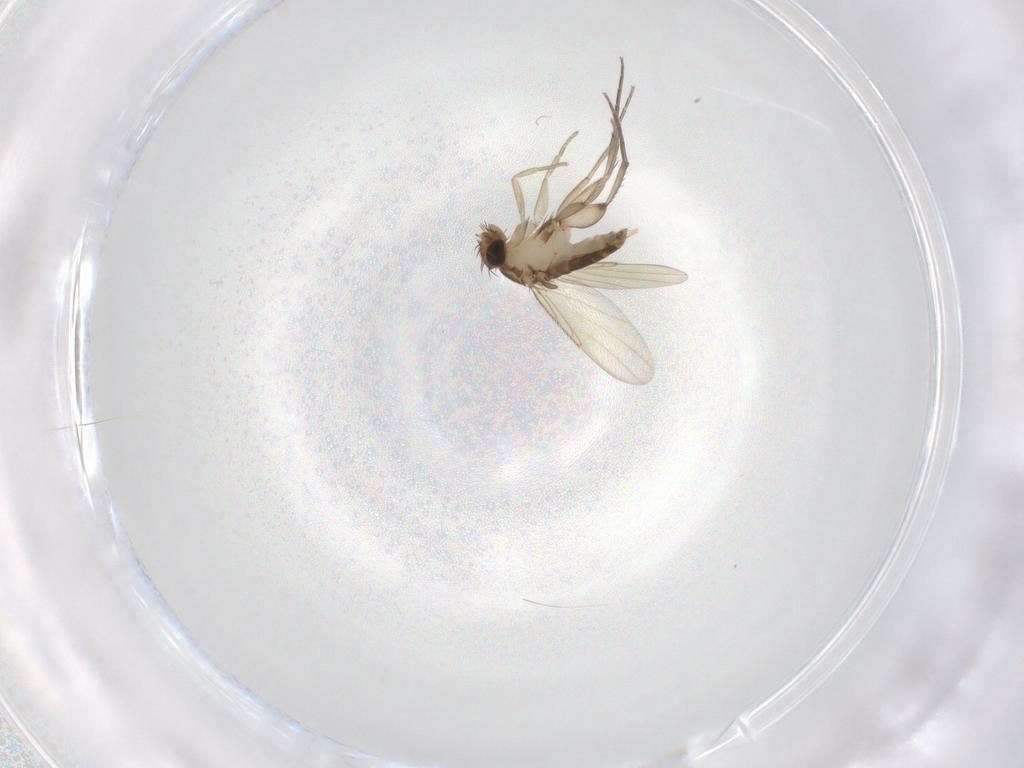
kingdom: Animalia
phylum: Arthropoda
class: Insecta
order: Diptera
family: Phoridae
